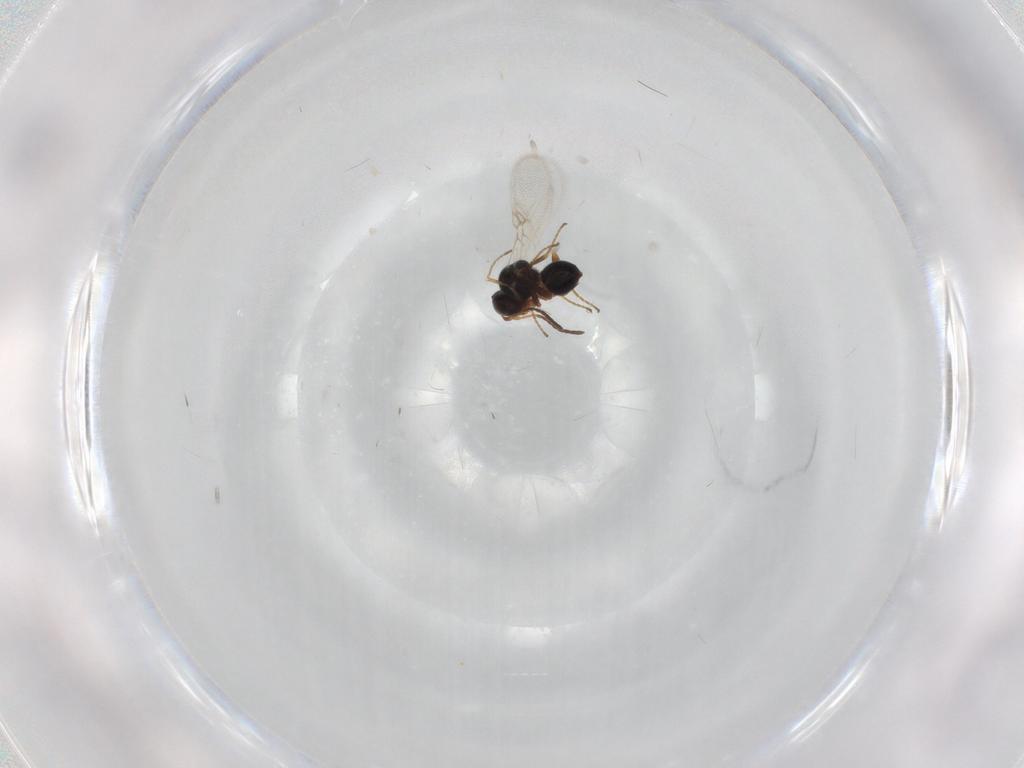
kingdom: Animalia
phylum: Arthropoda
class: Insecta
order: Hymenoptera
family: Figitidae
